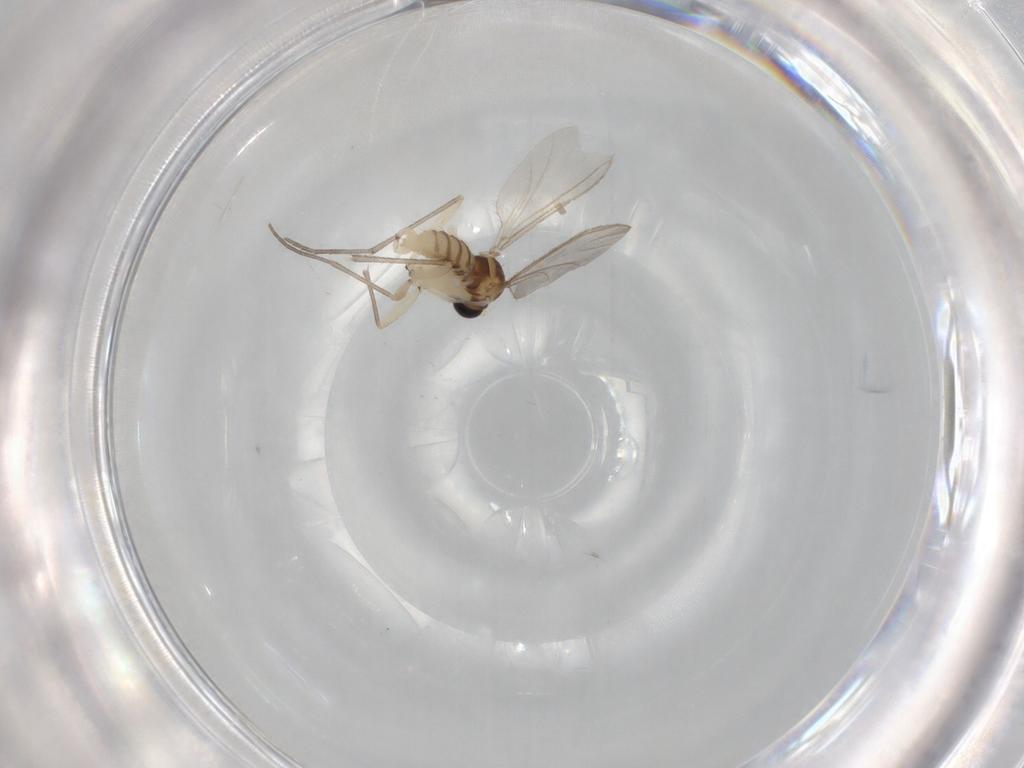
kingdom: Animalia
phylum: Arthropoda
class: Insecta
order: Diptera
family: Sciaridae
